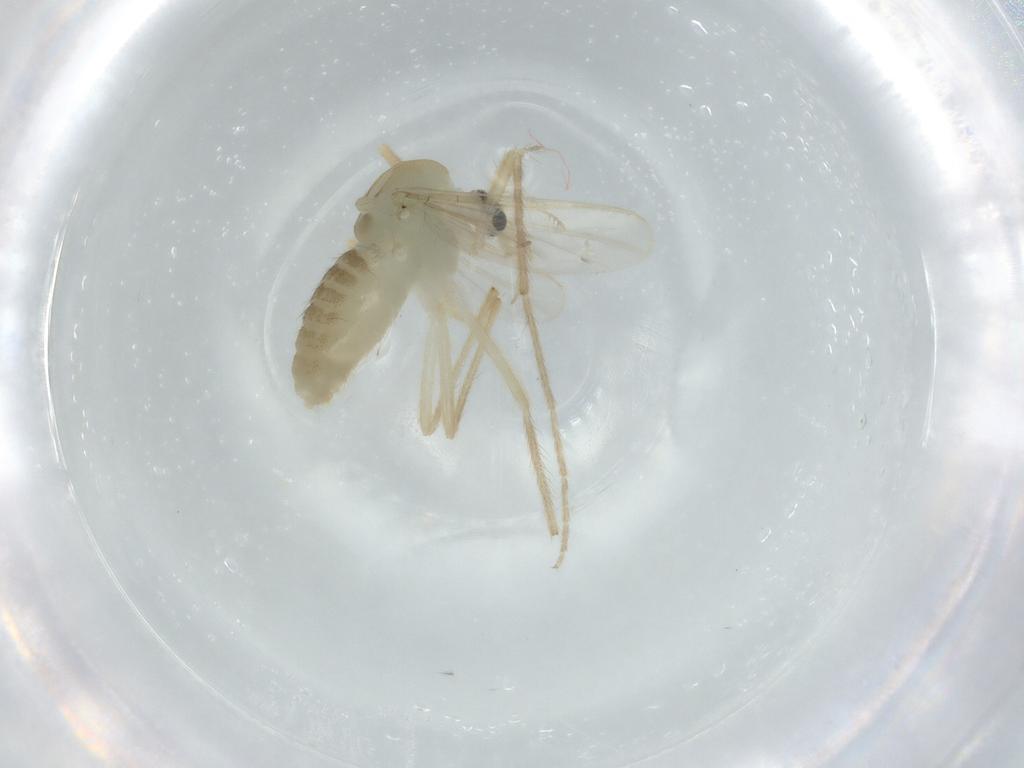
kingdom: Animalia
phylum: Arthropoda
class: Insecta
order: Diptera
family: Chironomidae
